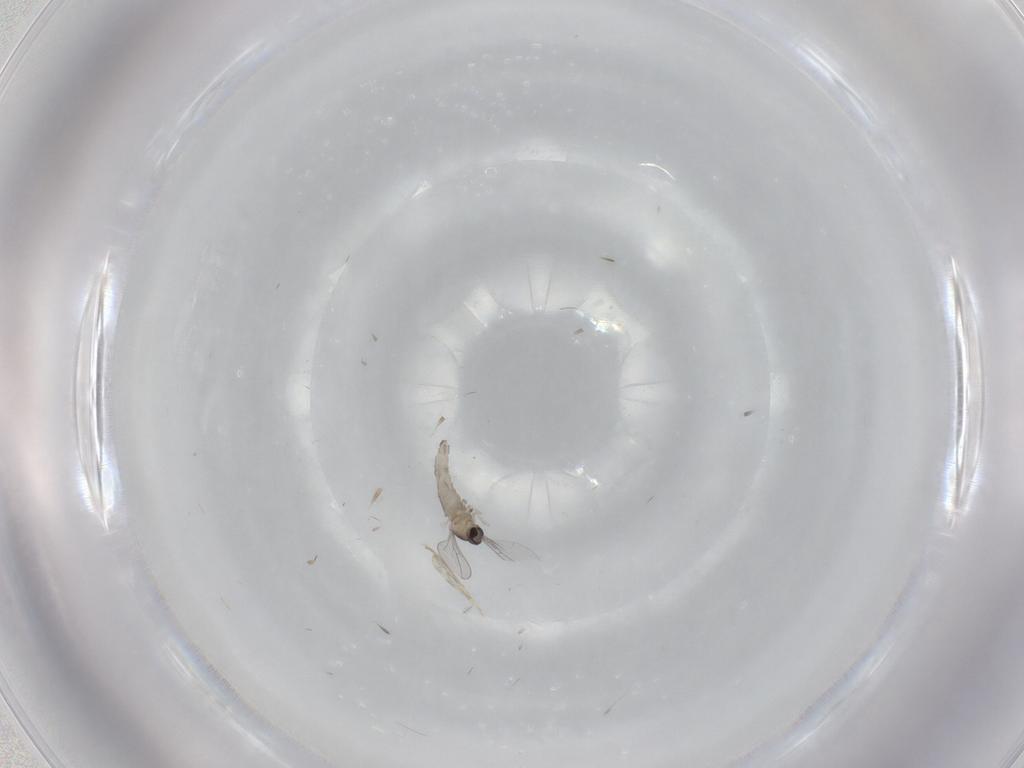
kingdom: Animalia
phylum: Arthropoda
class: Insecta
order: Diptera
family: Cecidomyiidae
